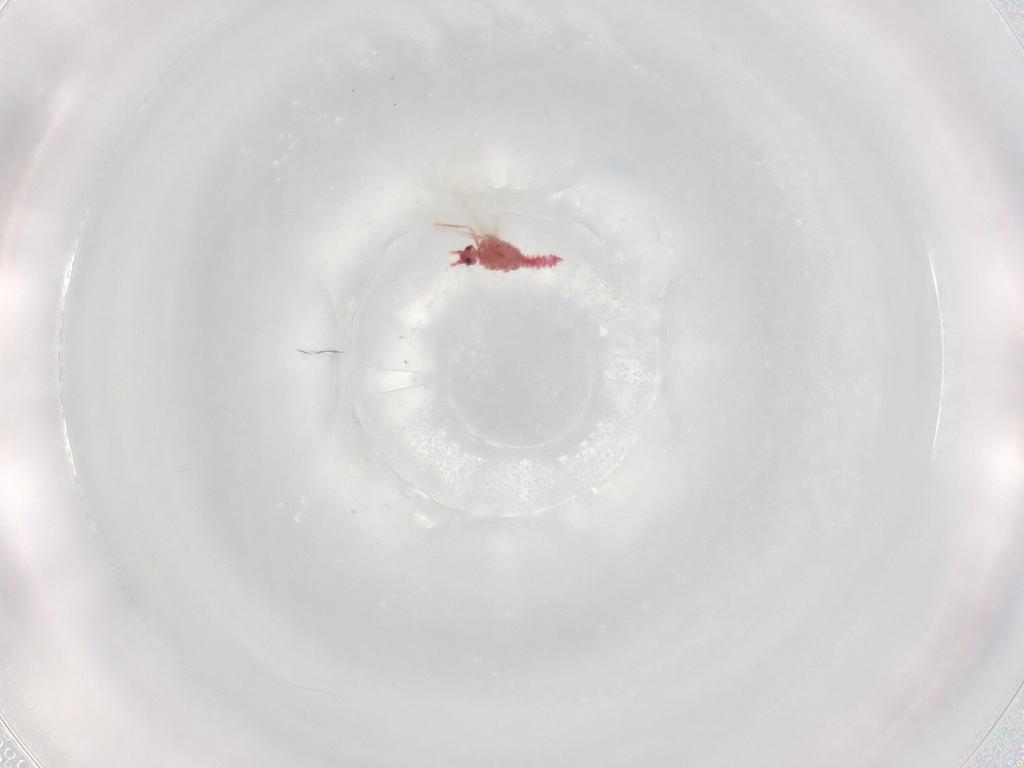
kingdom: Animalia
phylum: Arthropoda
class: Insecta
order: Hemiptera
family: Pseudococcidae
